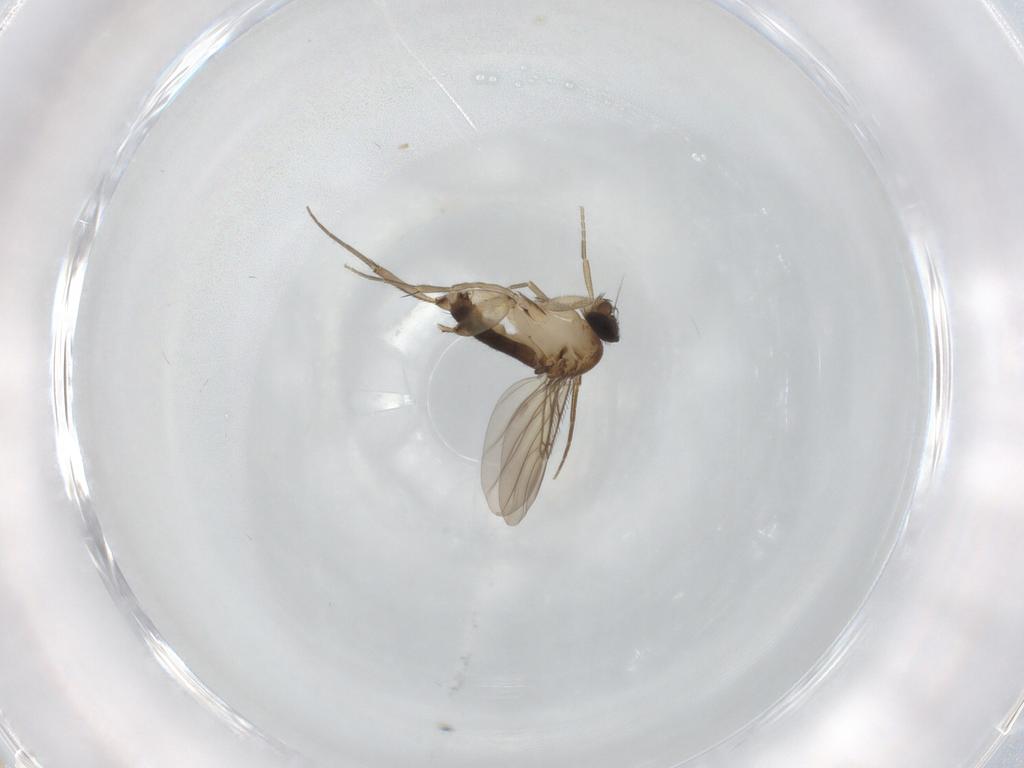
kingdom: Animalia
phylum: Arthropoda
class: Insecta
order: Diptera
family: Phoridae
